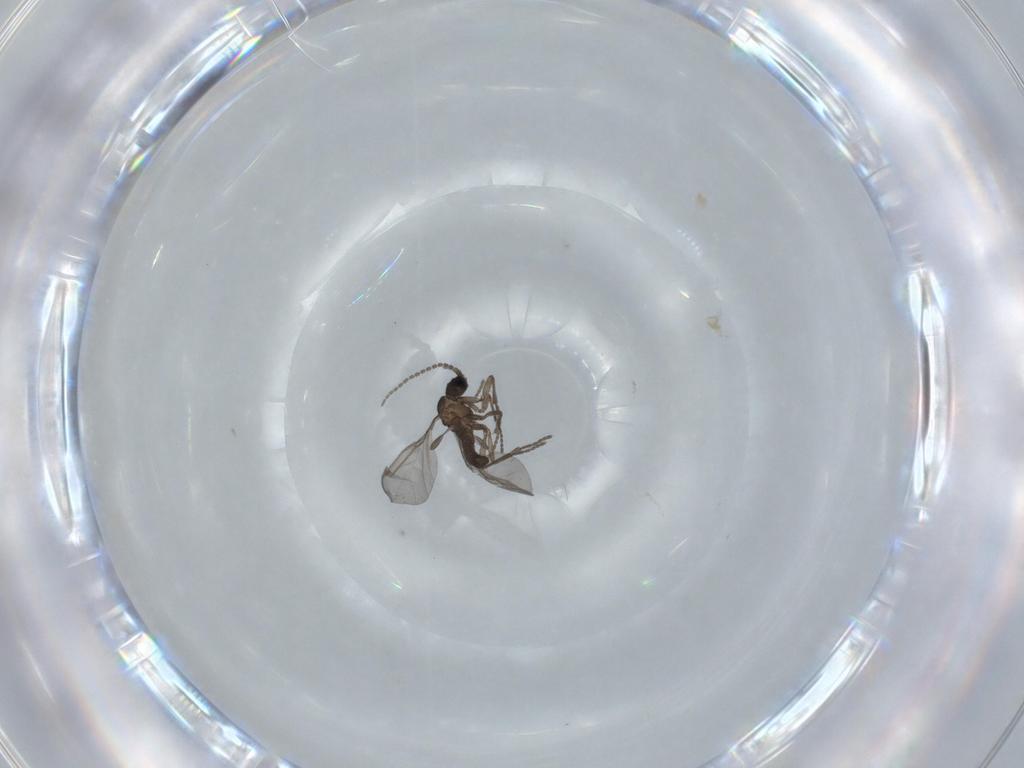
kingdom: Animalia
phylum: Arthropoda
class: Insecta
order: Diptera
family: Cecidomyiidae
